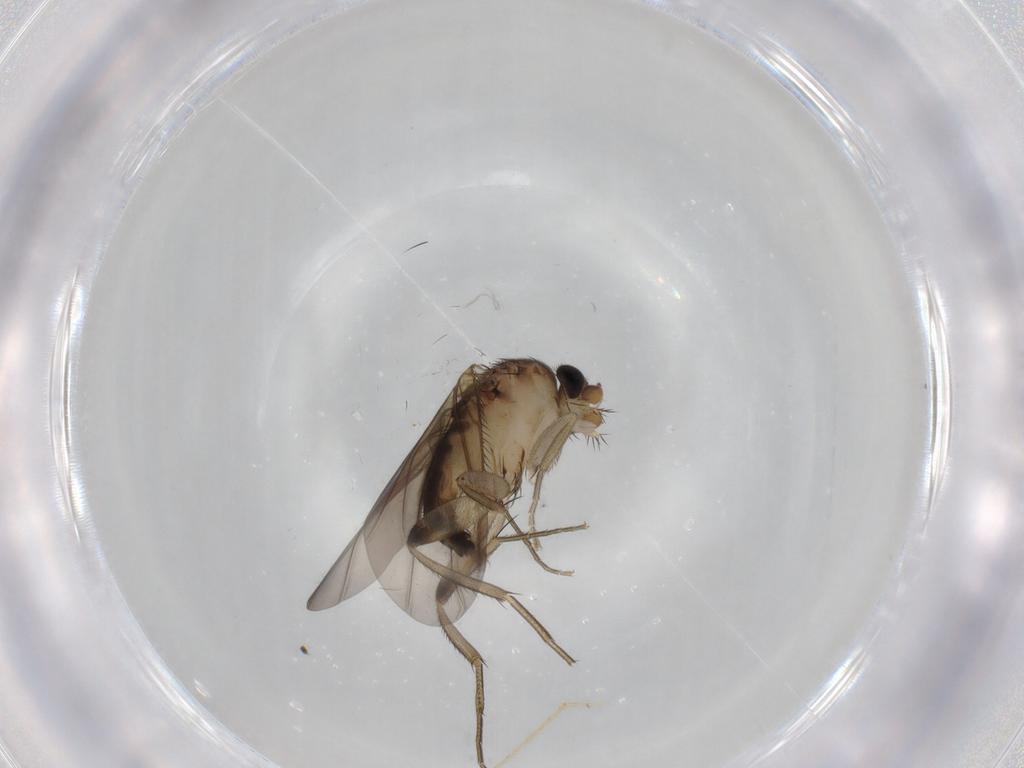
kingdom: Animalia
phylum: Arthropoda
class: Insecta
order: Diptera
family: Phoridae
